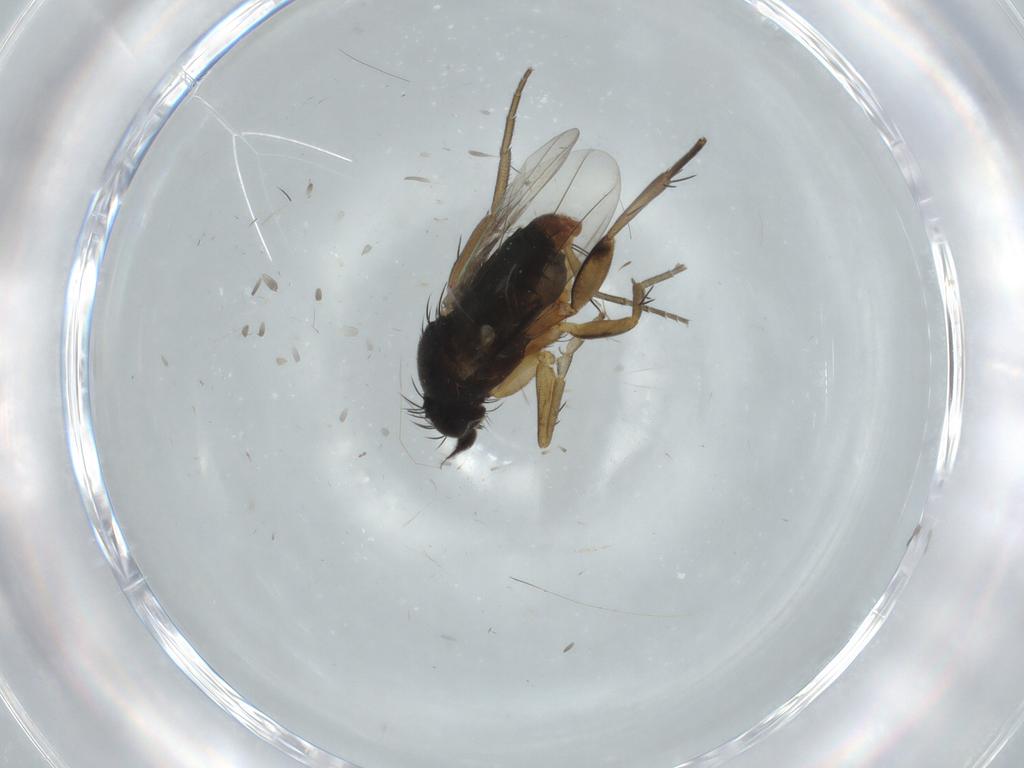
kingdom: Animalia
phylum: Arthropoda
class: Insecta
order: Diptera
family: Phoridae
